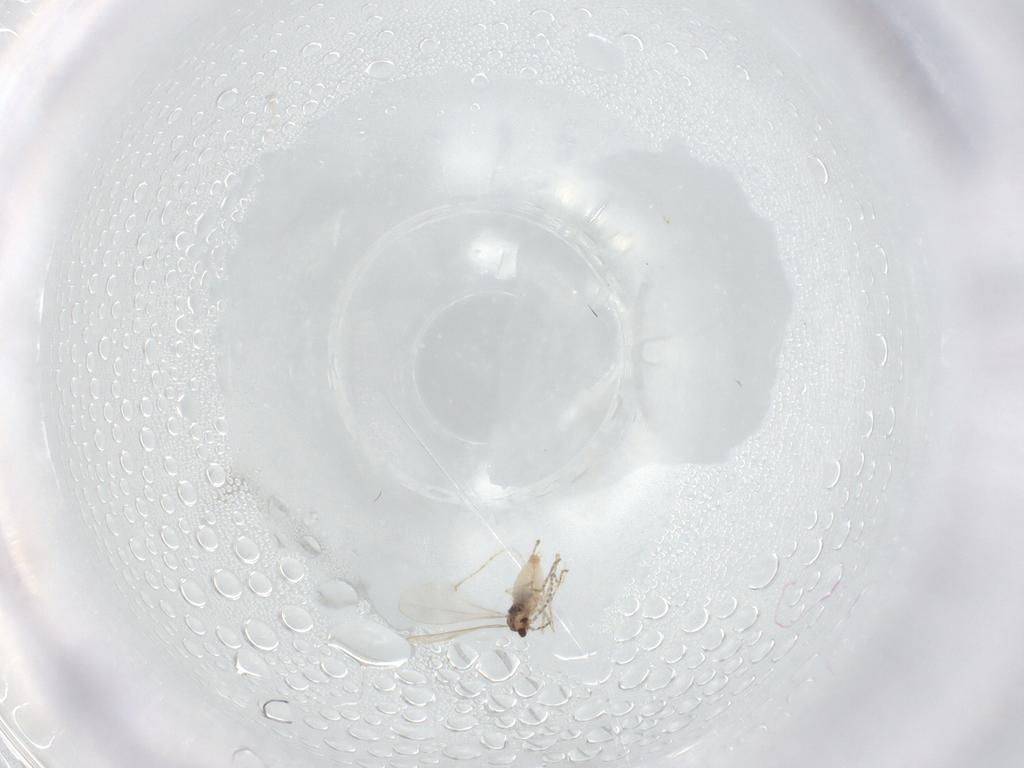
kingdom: Animalia
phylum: Arthropoda
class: Insecta
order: Diptera
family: Cecidomyiidae
